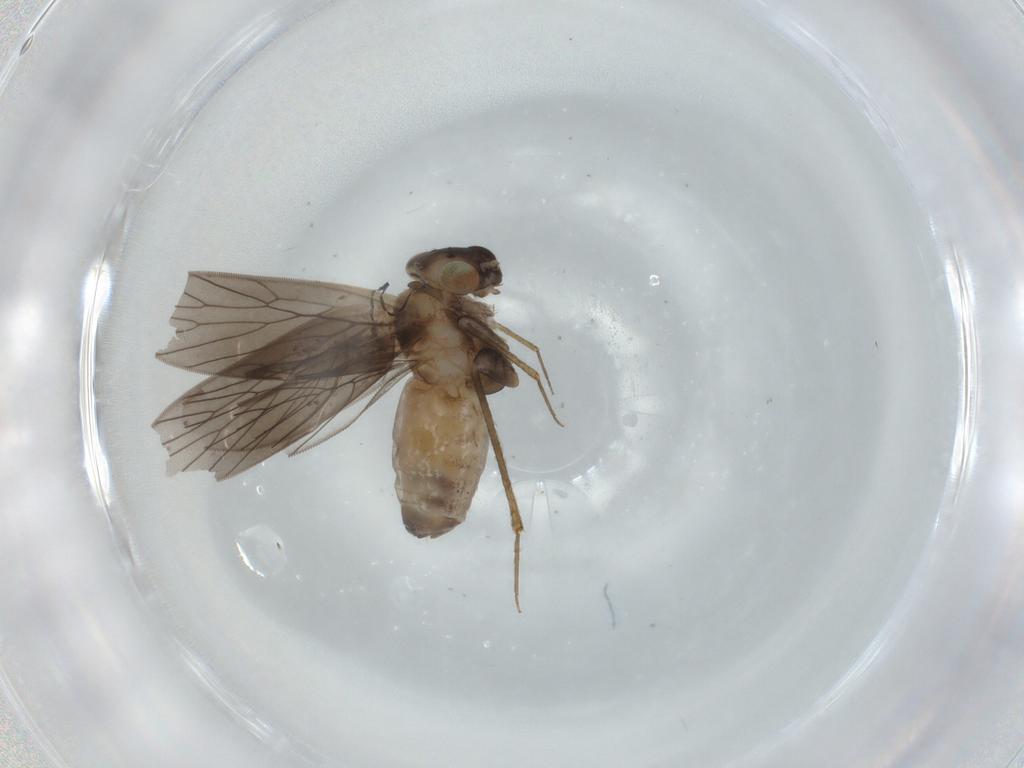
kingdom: Animalia
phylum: Arthropoda
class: Insecta
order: Psocodea
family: Lepidopsocidae
